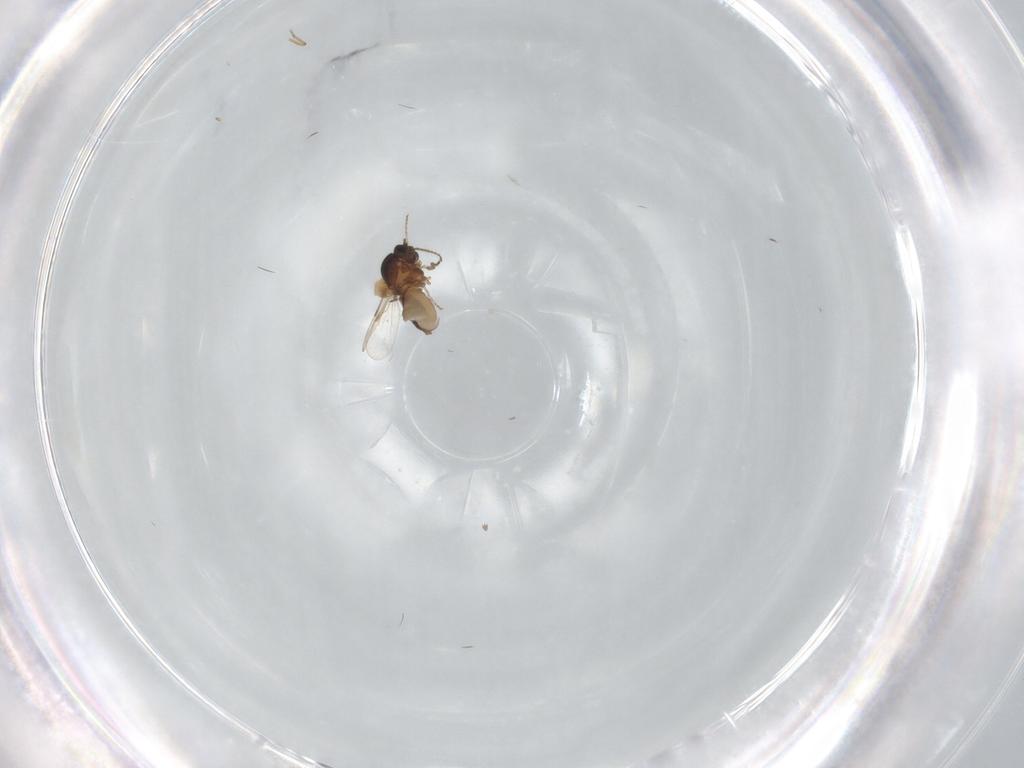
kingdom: Animalia
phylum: Arthropoda
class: Insecta
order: Diptera
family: Ceratopogonidae
